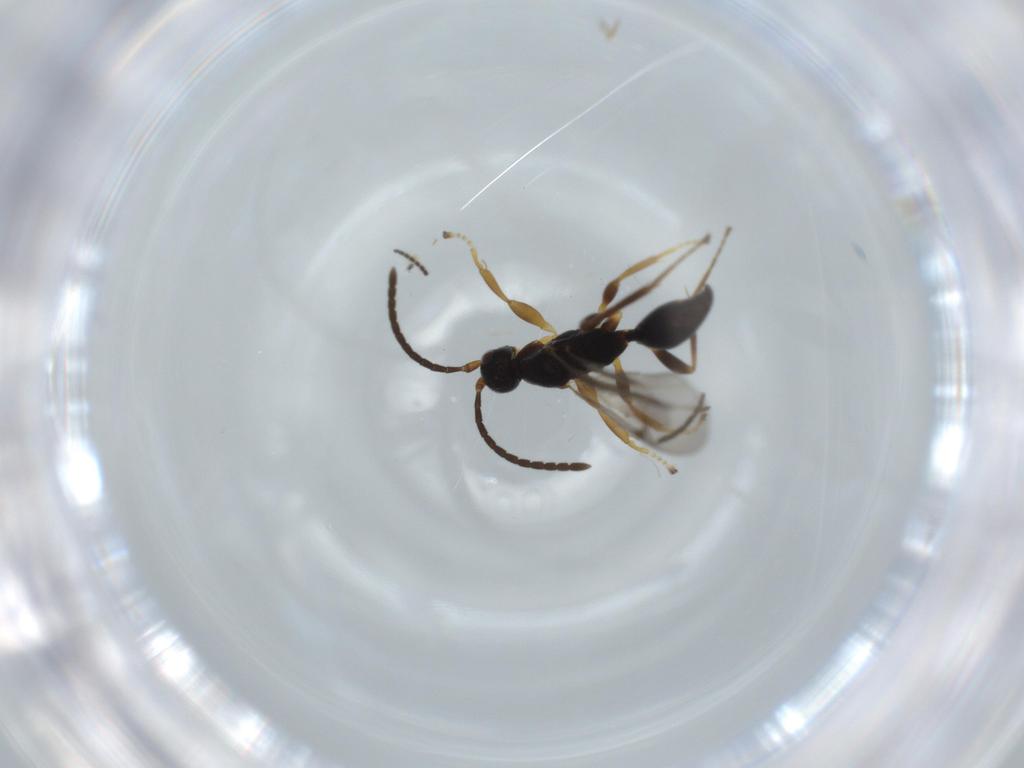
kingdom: Animalia
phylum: Arthropoda
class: Insecta
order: Hymenoptera
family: Proctotrupidae
